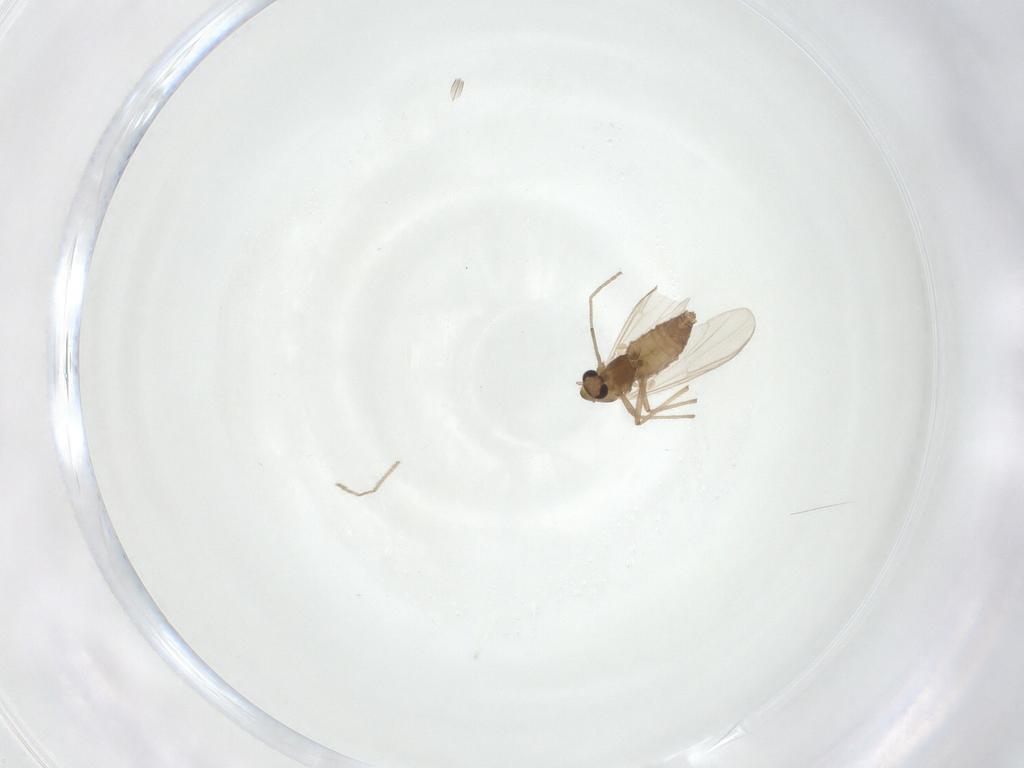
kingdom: Animalia
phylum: Arthropoda
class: Insecta
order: Diptera
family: Chironomidae
